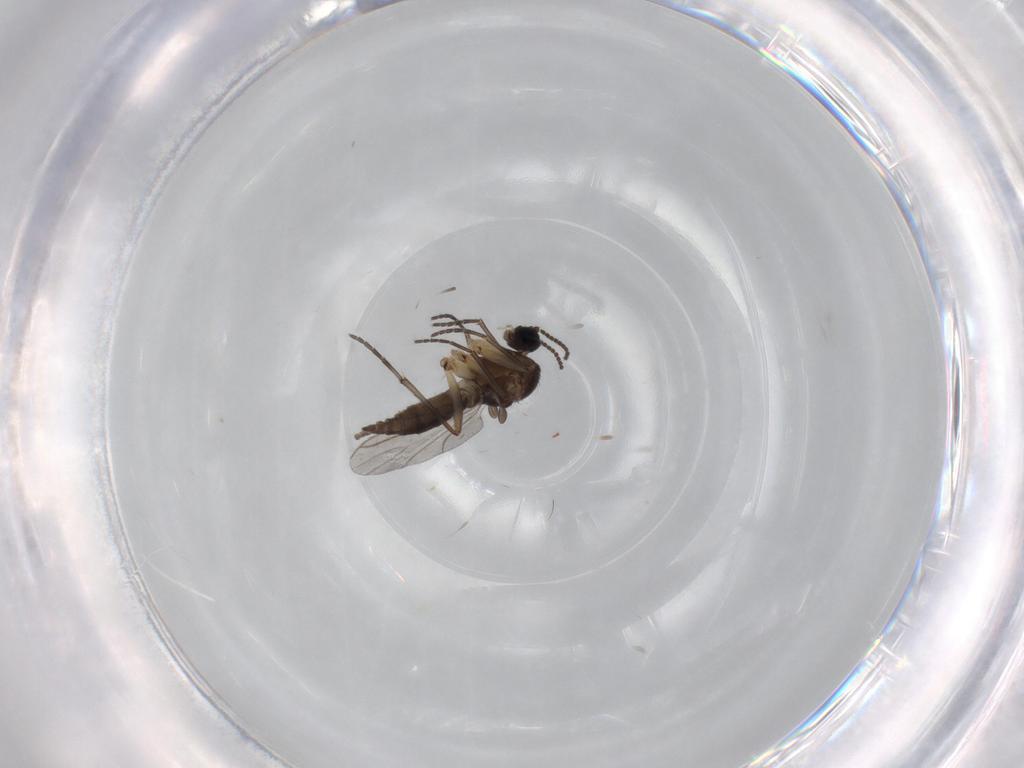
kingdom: Animalia
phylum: Arthropoda
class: Insecta
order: Diptera
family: Sciaridae
